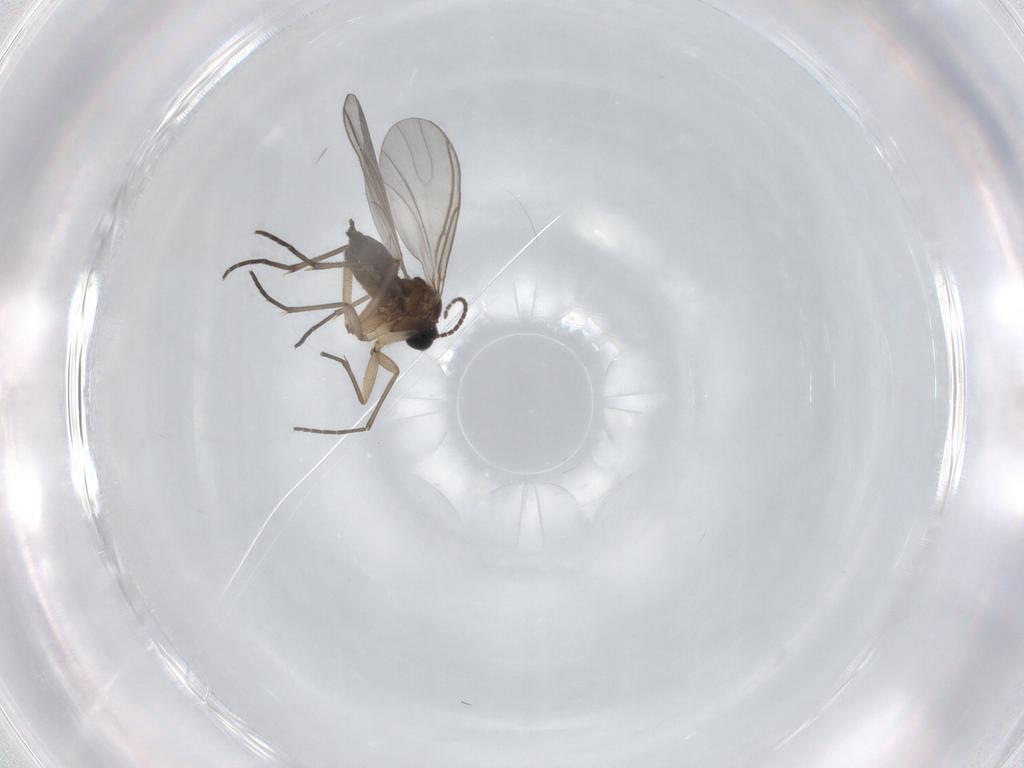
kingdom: Animalia
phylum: Arthropoda
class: Insecta
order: Diptera
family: Sciaridae
